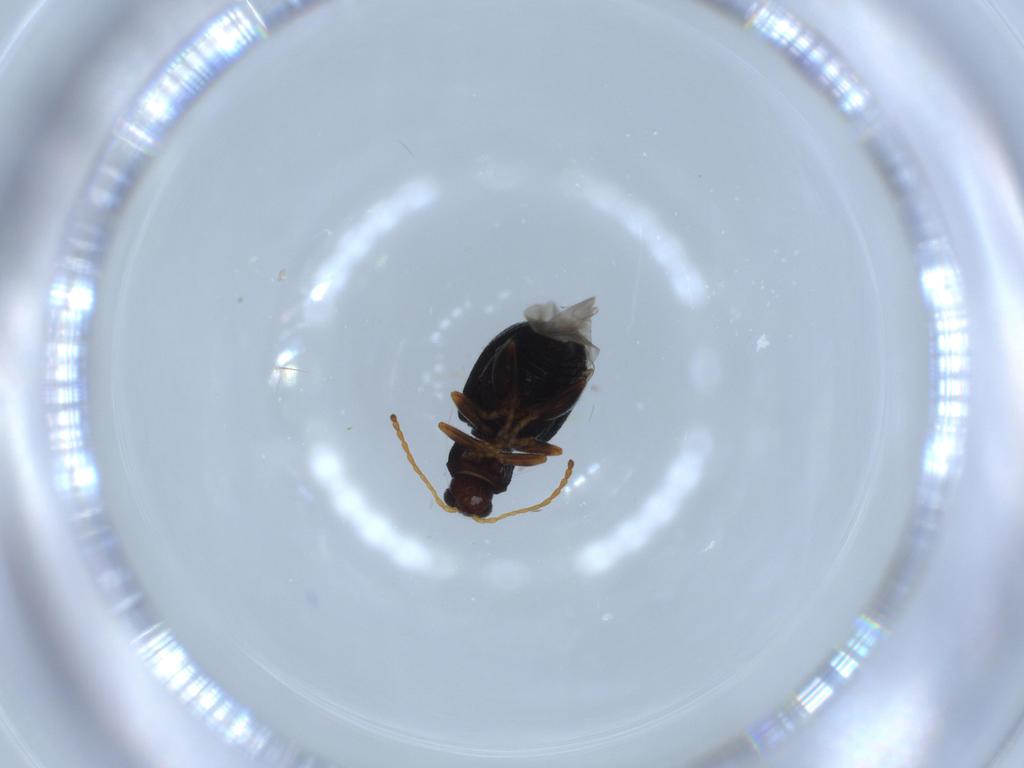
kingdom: Animalia
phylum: Arthropoda
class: Insecta
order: Coleoptera
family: Chrysomelidae
